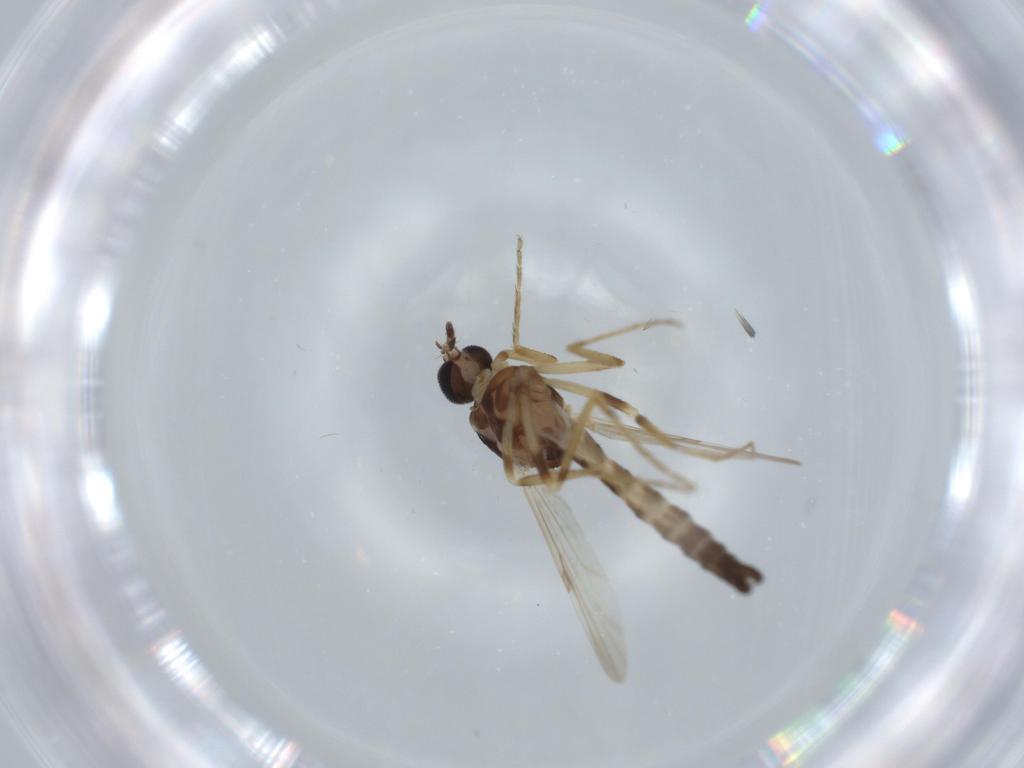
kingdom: Animalia
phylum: Arthropoda
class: Insecta
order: Diptera
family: Ceratopogonidae
